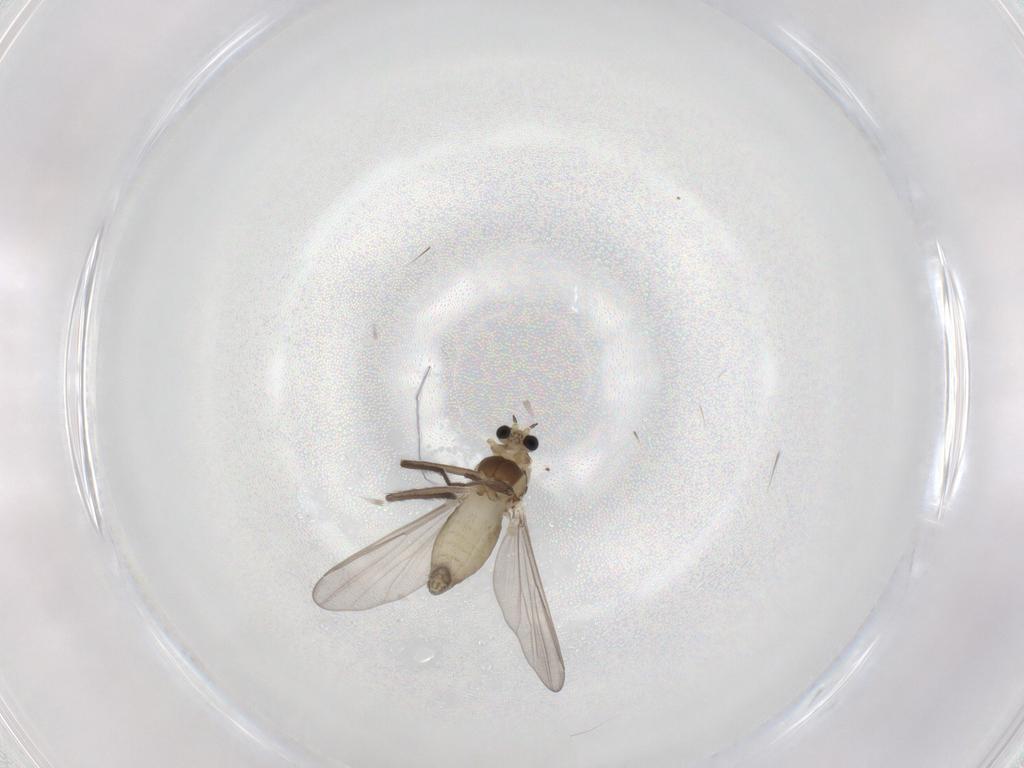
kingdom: Animalia
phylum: Arthropoda
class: Insecta
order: Diptera
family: Chironomidae
